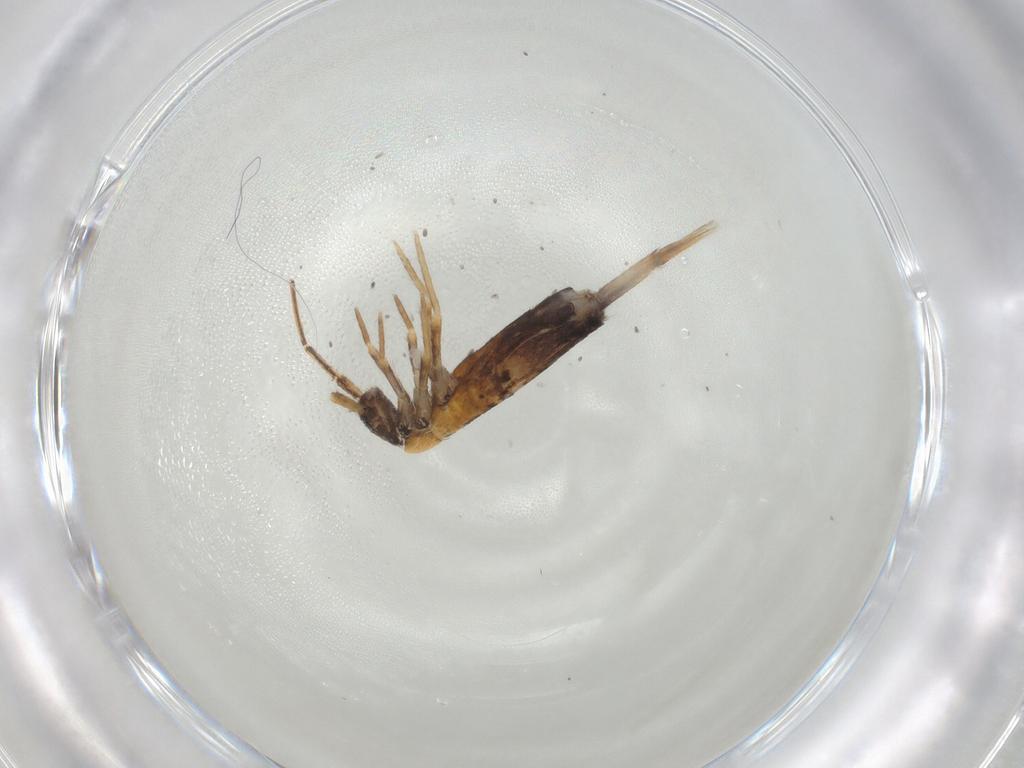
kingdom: Animalia
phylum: Arthropoda
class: Collembola
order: Entomobryomorpha
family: Entomobryidae
